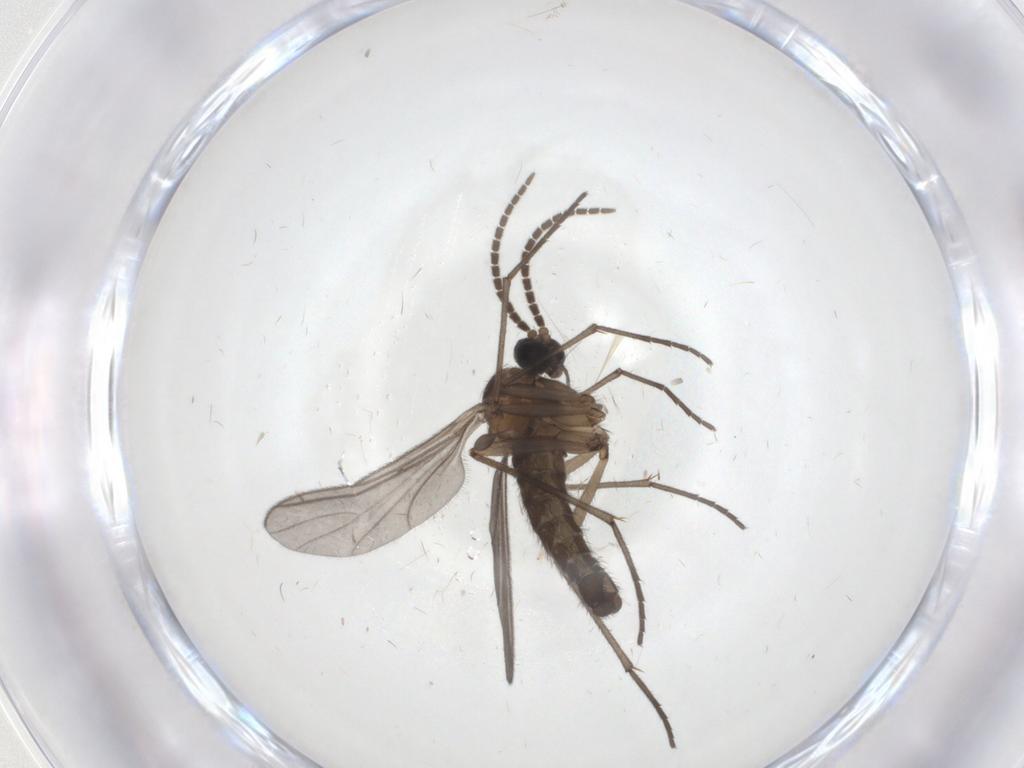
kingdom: Animalia
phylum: Arthropoda
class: Insecta
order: Diptera
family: Sciaridae
